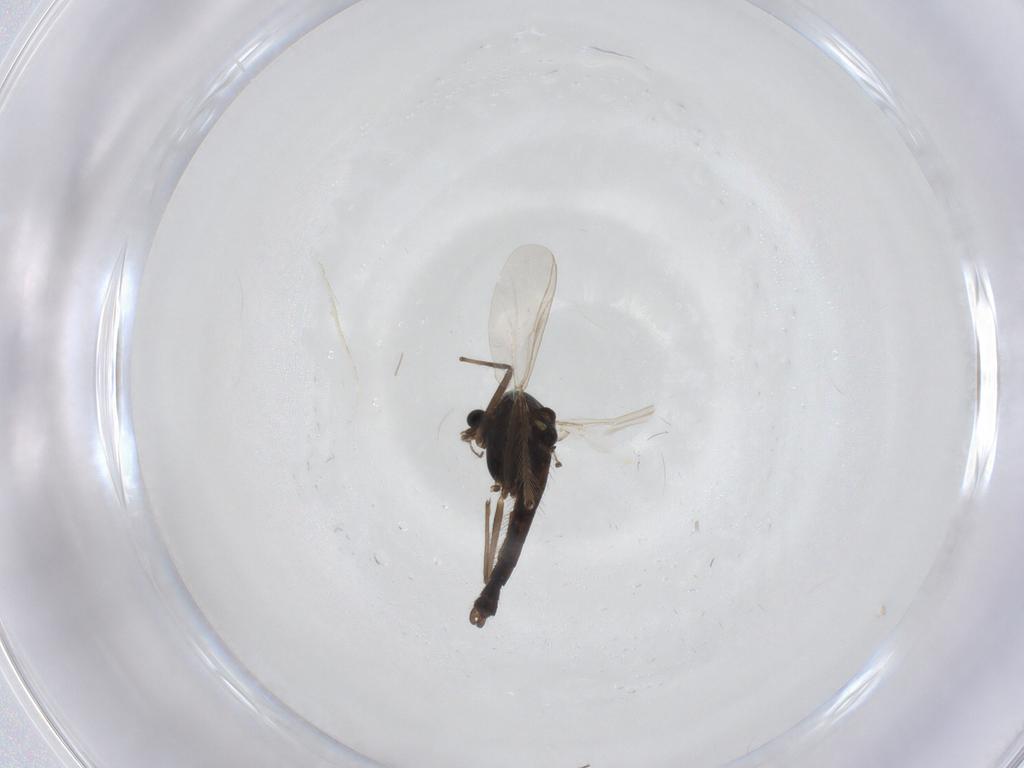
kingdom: Animalia
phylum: Arthropoda
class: Insecta
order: Diptera
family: Chironomidae
